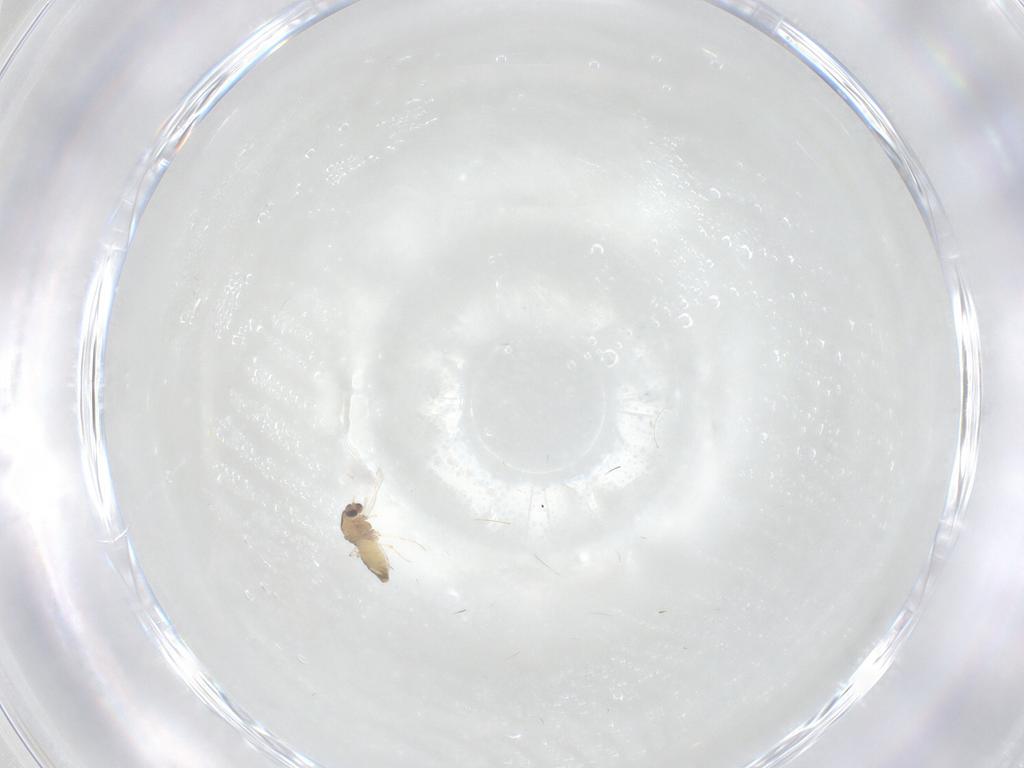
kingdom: Animalia
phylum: Arthropoda
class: Insecta
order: Diptera
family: Chironomidae
